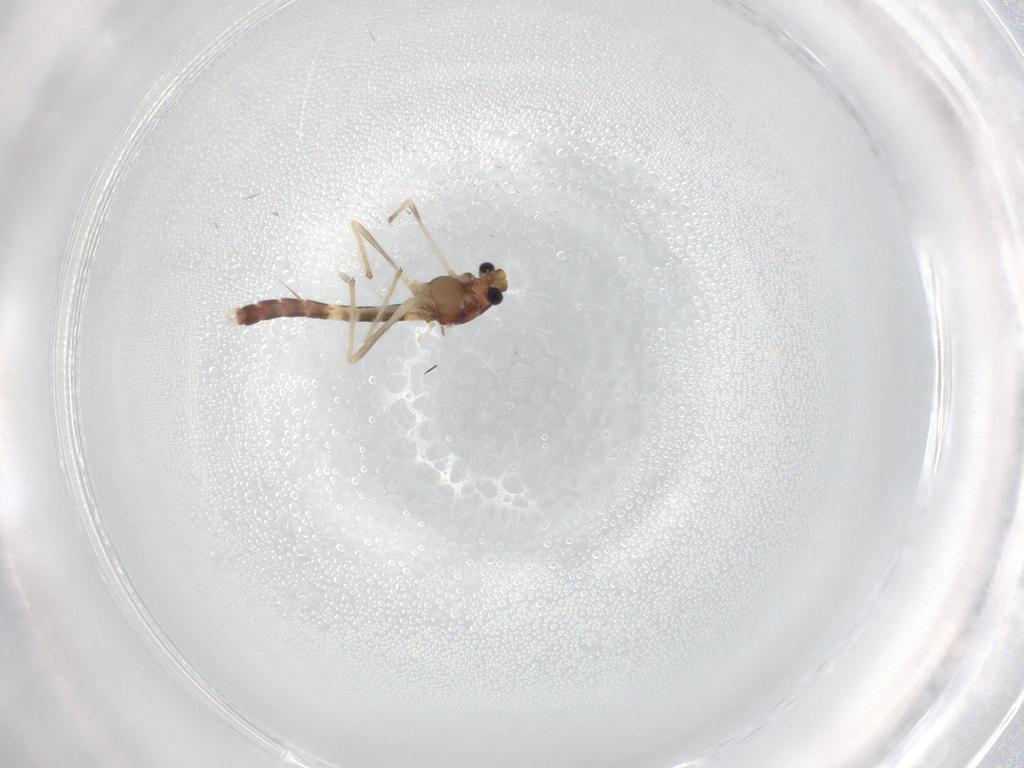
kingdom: Animalia
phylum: Arthropoda
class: Insecta
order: Diptera
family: Chironomidae
